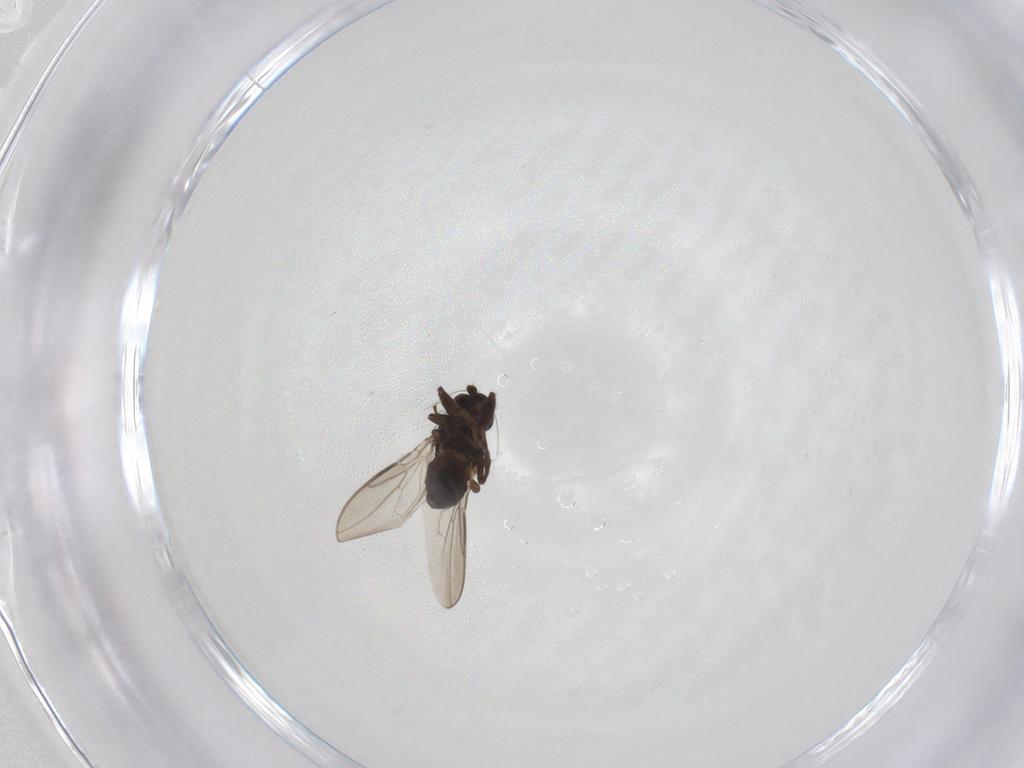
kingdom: Animalia
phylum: Arthropoda
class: Insecta
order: Diptera
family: Sphaeroceridae
